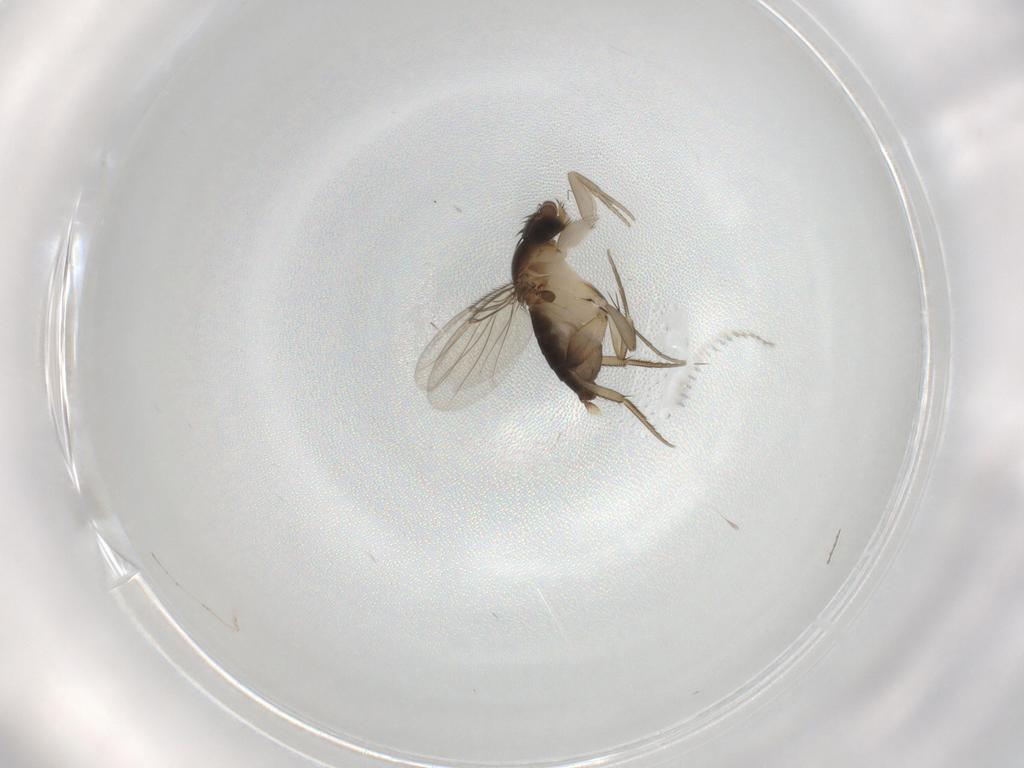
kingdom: Animalia
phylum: Arthropoda
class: Insecta
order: Diptera
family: Phoridae
